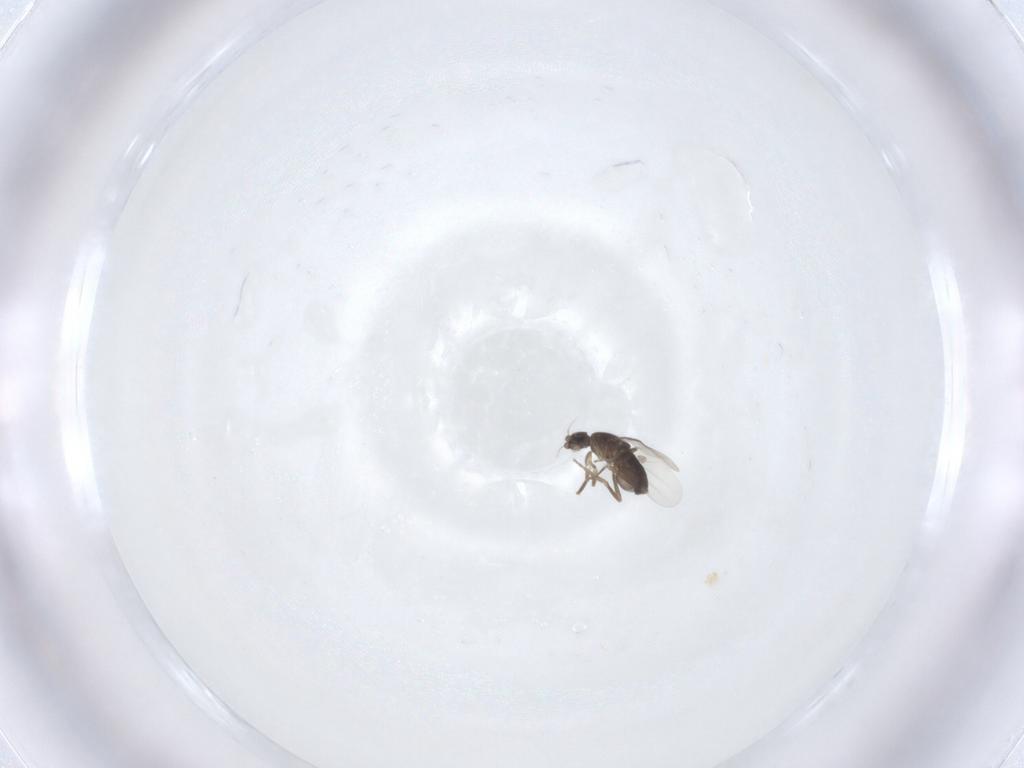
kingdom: Animalia
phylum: Arthropoda
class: Insecta
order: Diptera
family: Phoridae
